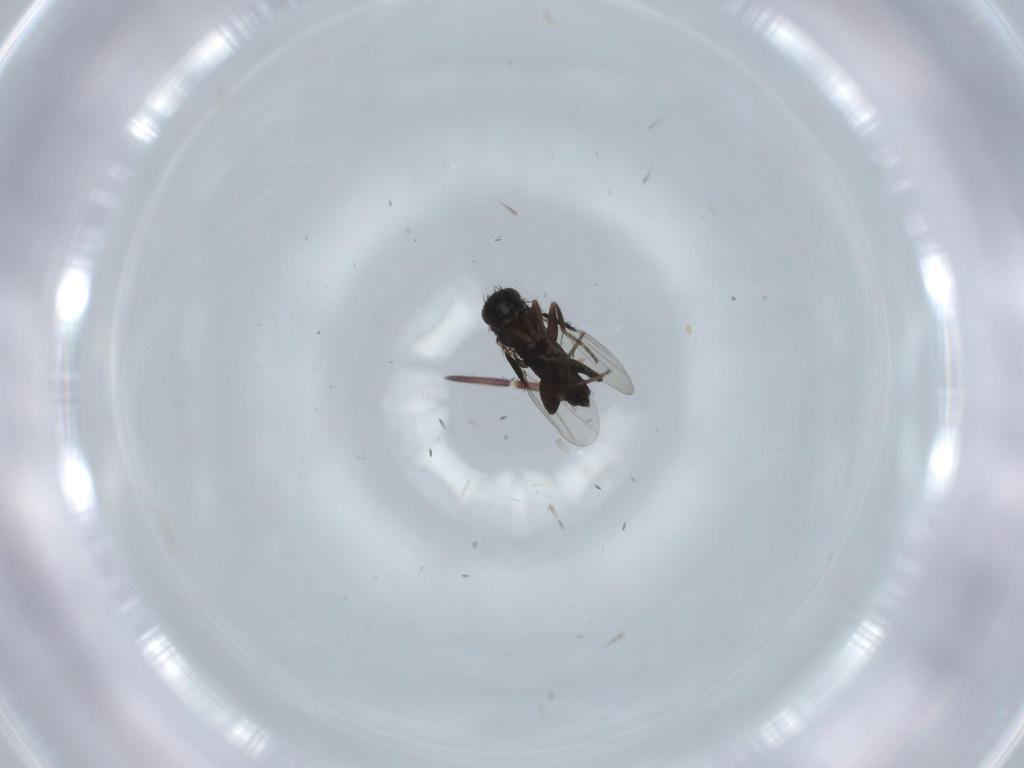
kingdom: Animalia
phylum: Arthropoda
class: Insecta
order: Diptera
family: Phoridae
